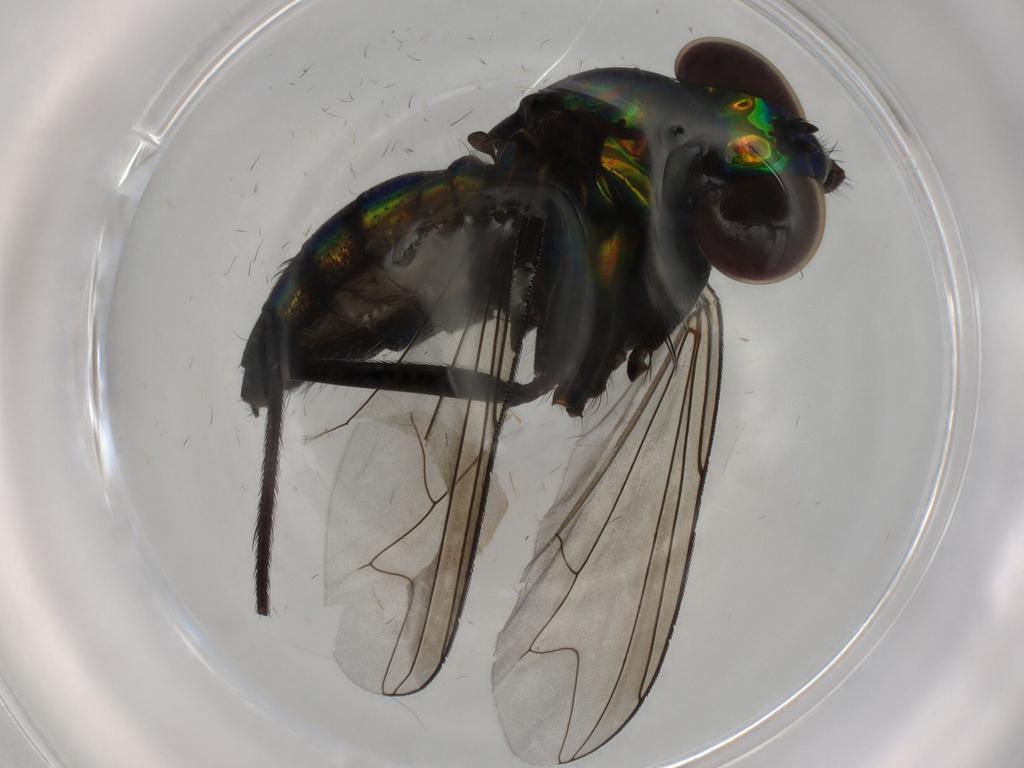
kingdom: Animalia
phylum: Arthropoda
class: Insecta
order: Diptera
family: Dolichopodidae
